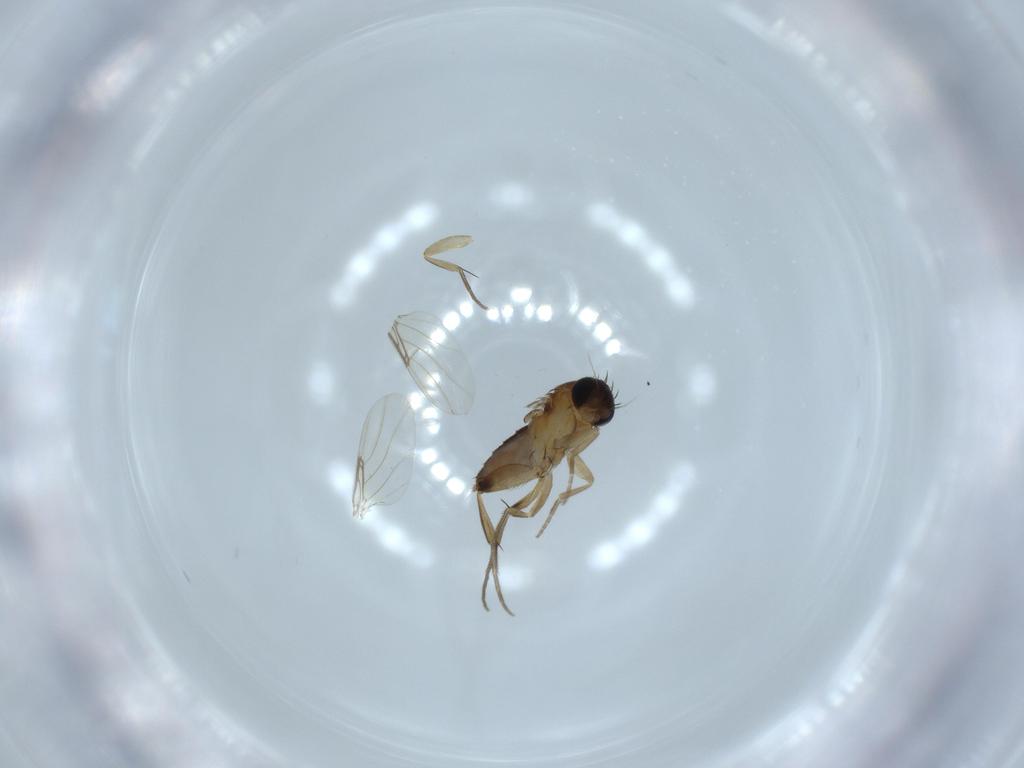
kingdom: Animalia
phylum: Arthropoda
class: Insecta
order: Diptera
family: Phoridae
